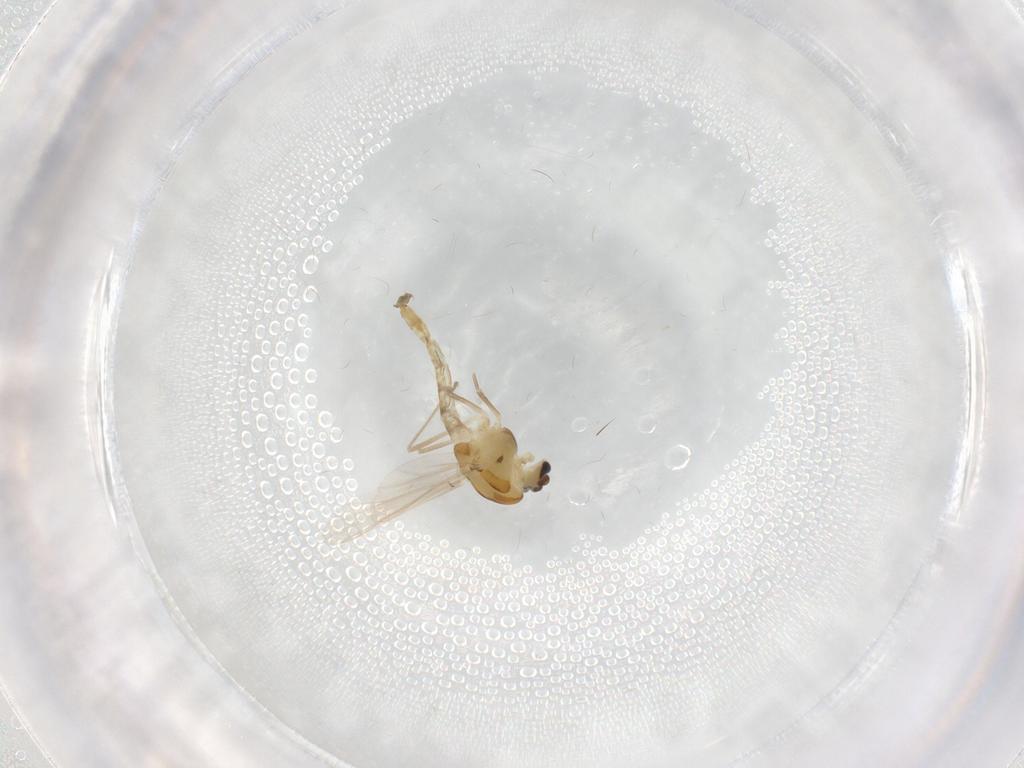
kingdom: Animalia
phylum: Arthropoda
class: Insecta
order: Diptera
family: Chironomidae
